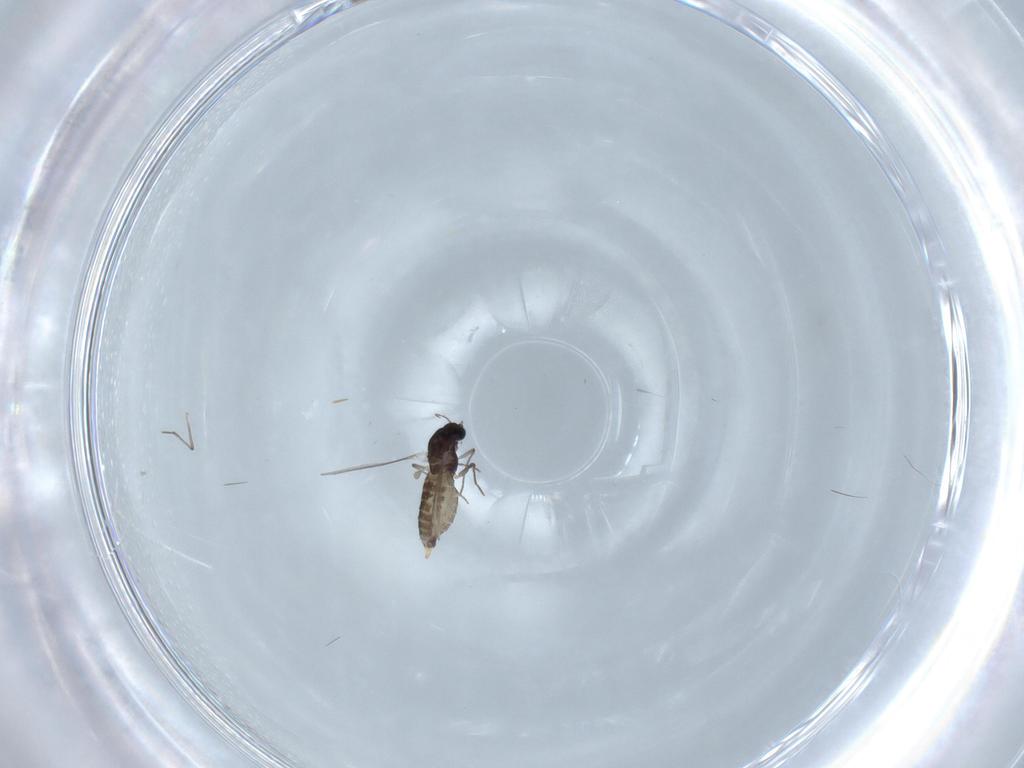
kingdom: Animalia
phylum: Arthropoda
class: Insecta
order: Diptera
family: Chironomidae
